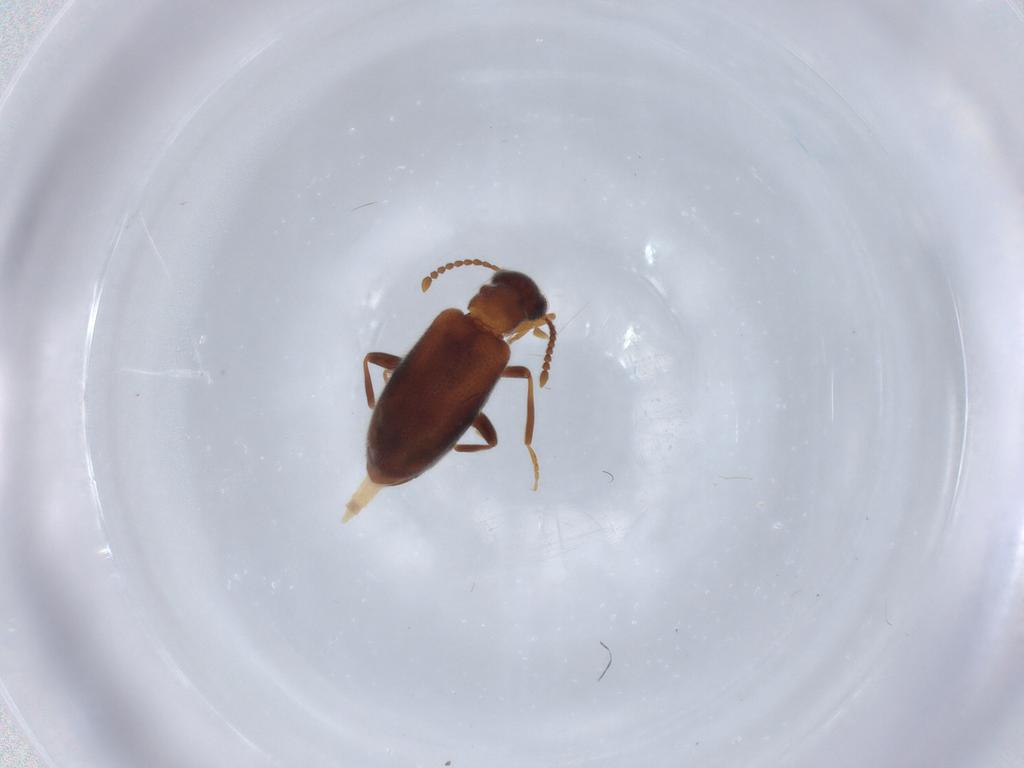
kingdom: Animalia
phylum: Arthropoda
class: Insecta
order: Coleoptera
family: Aderidae
